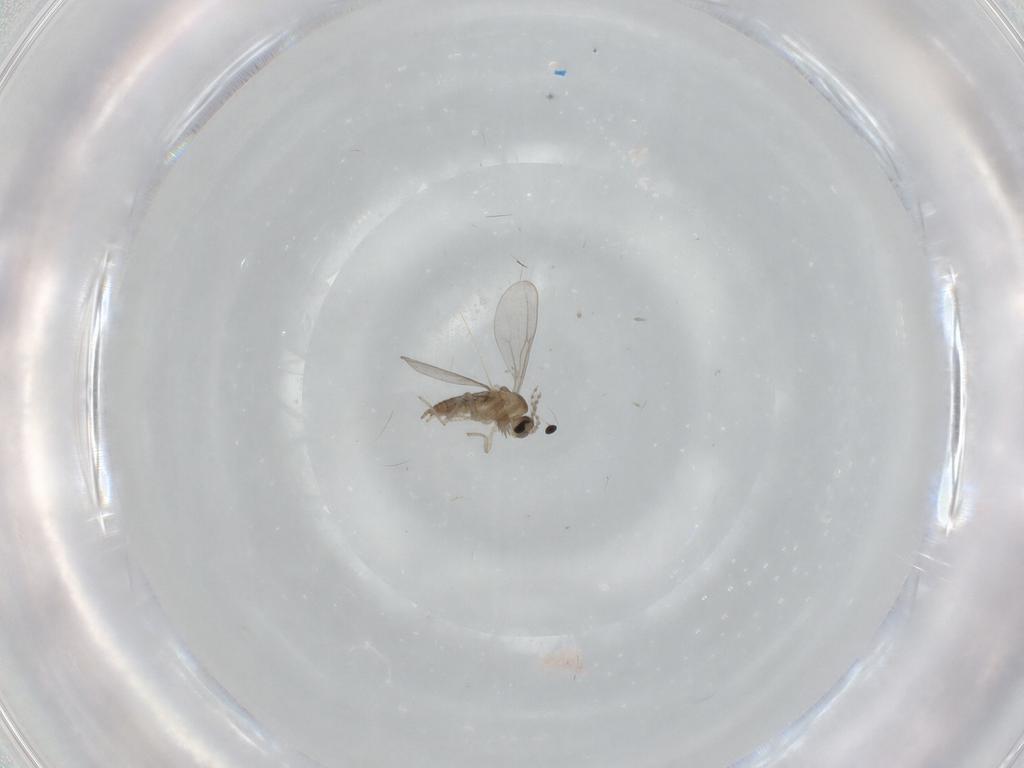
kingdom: Animalia
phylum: Arthropoda
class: Insecta
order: Diptera
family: Cecidomyiidae
